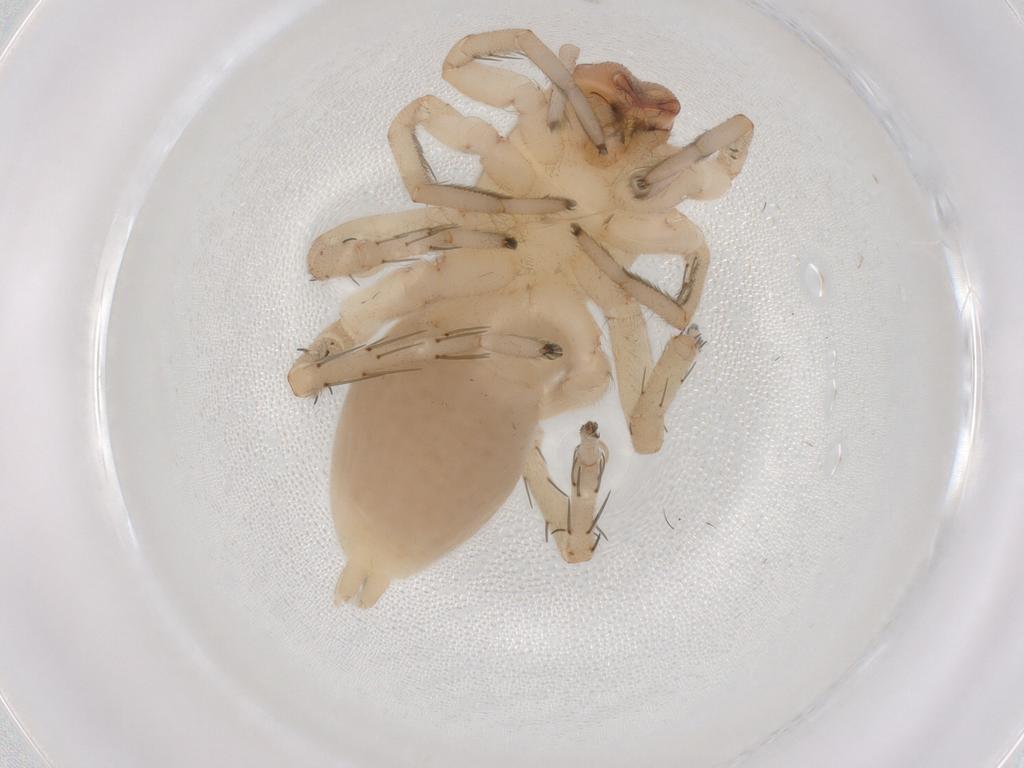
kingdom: Animalia
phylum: Arthropoda
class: Arachnida
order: Araneae
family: Clubionidae
